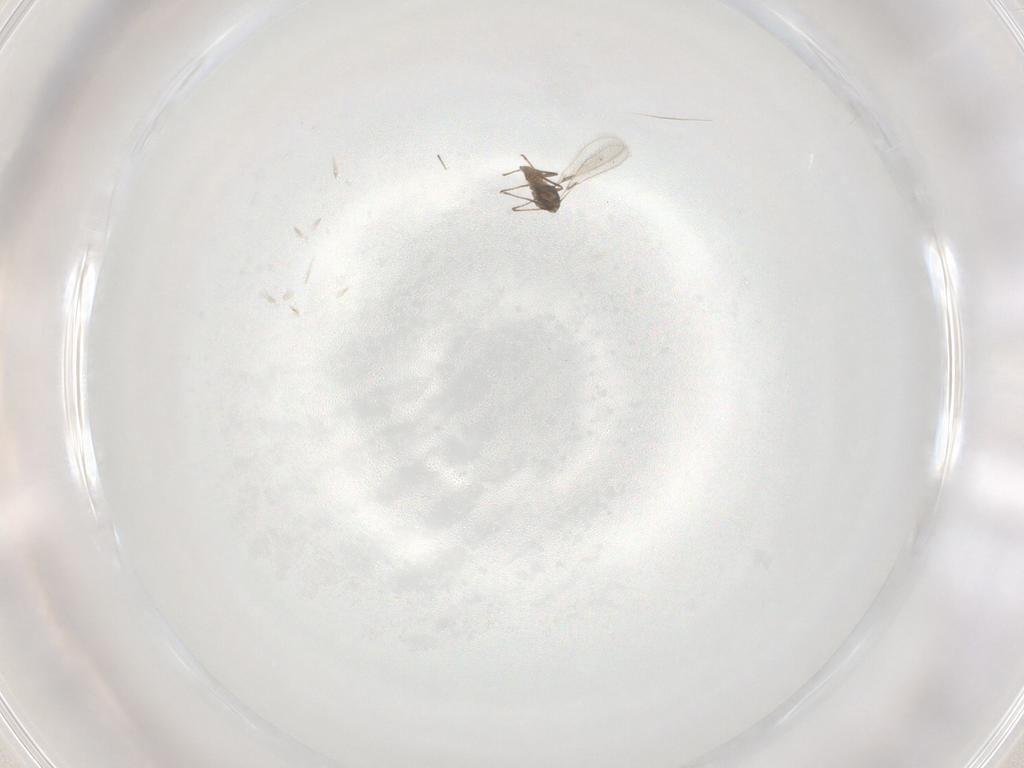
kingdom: Animalia
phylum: Arthropoda
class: Insecta
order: Hymenoptera
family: Mymaridae
